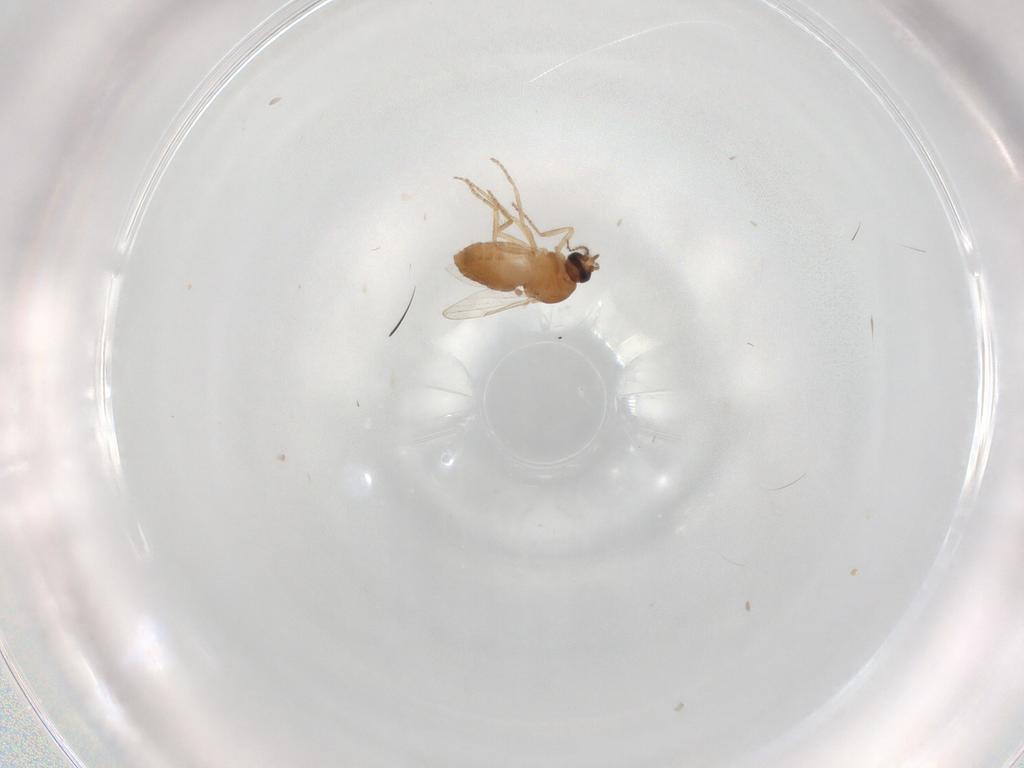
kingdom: Animalia
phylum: Arthropoda
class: Insecta
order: Diptera
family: Ceratopogonidae
